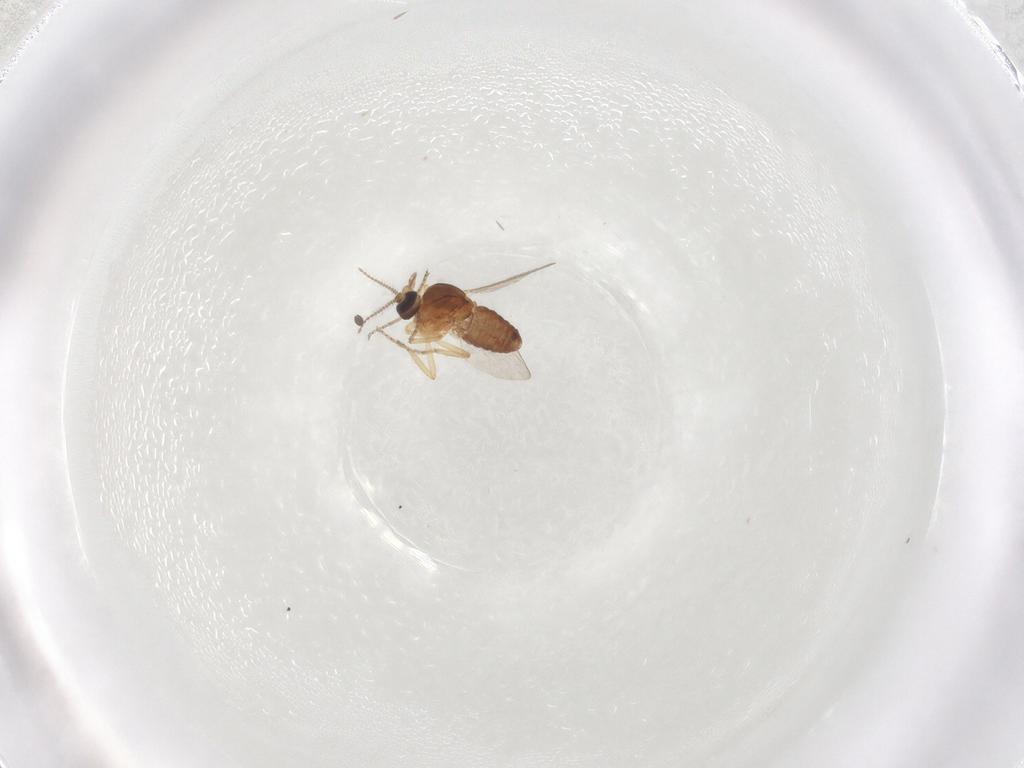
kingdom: Animalia
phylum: Arthropoda
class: Insecta
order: Diptera
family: Ceratopogonidae
